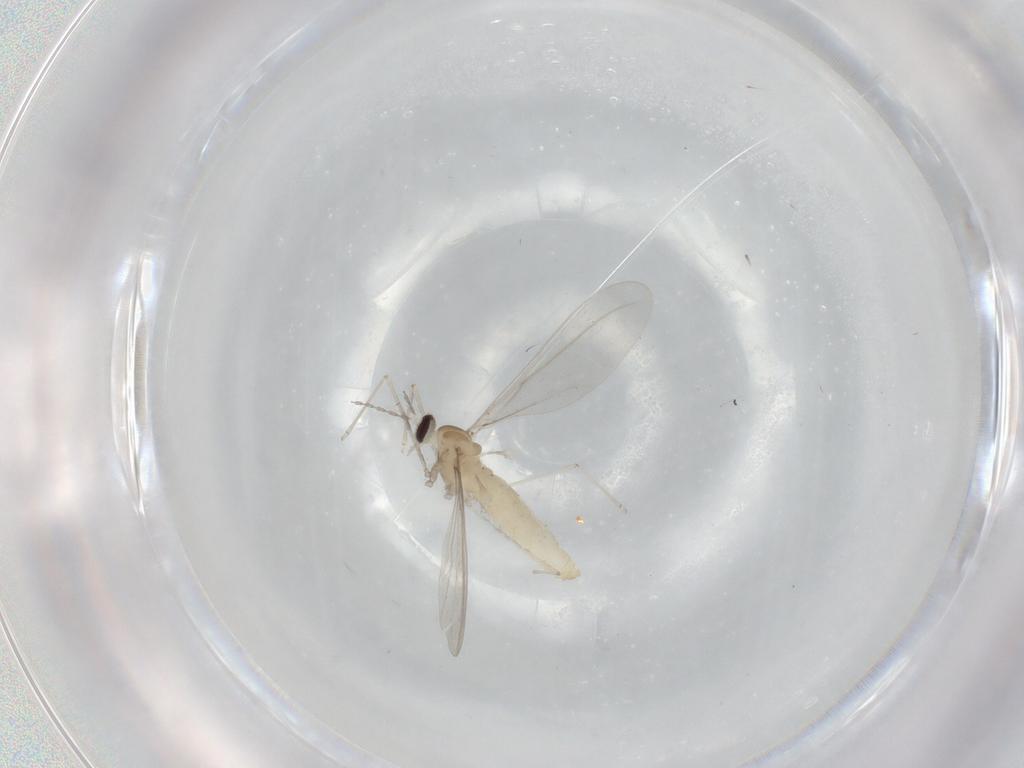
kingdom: Animalia
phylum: Arthropoda
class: Insecta
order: Diptera
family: Cecidomyiidae
